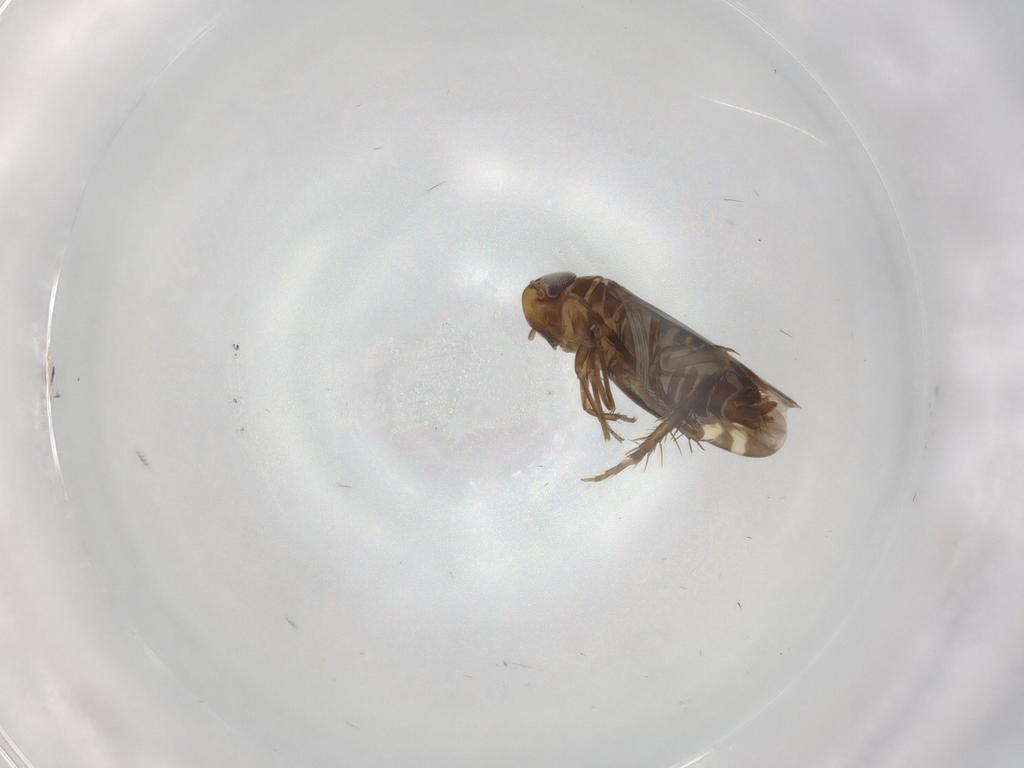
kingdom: Animalia
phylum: Arthropoda
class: Insecta
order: Hemiptera
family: Cicadellidae
